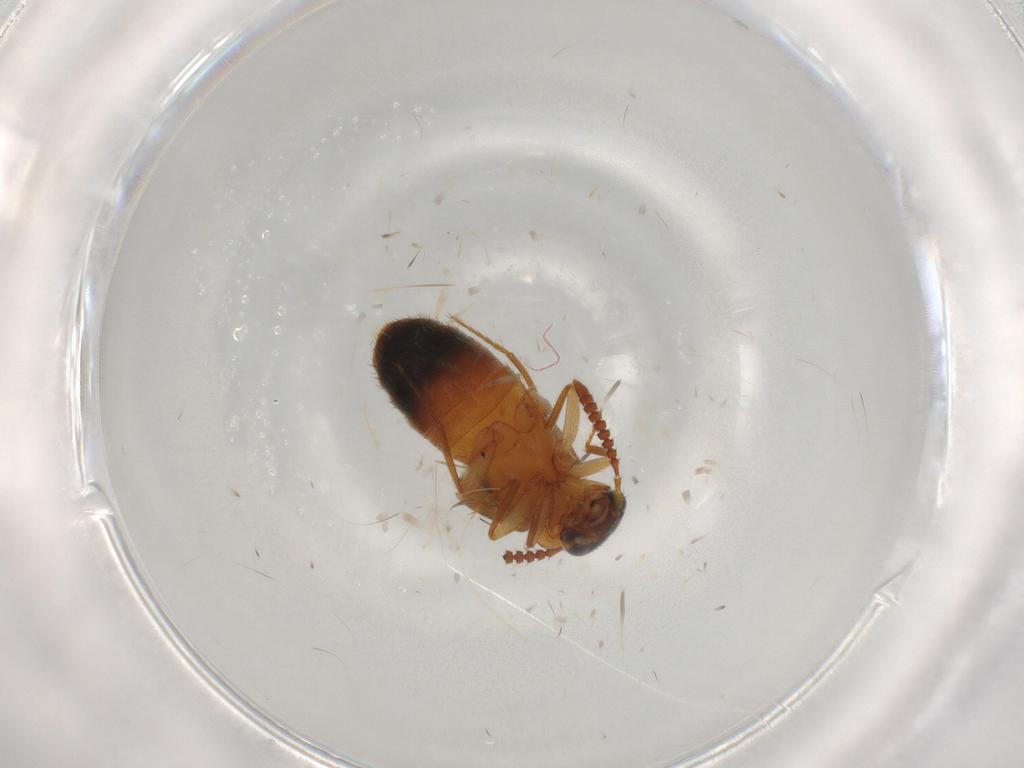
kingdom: Animalia
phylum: Arthropoda
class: Insecta
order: Coleoptera
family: Staphylinidae
